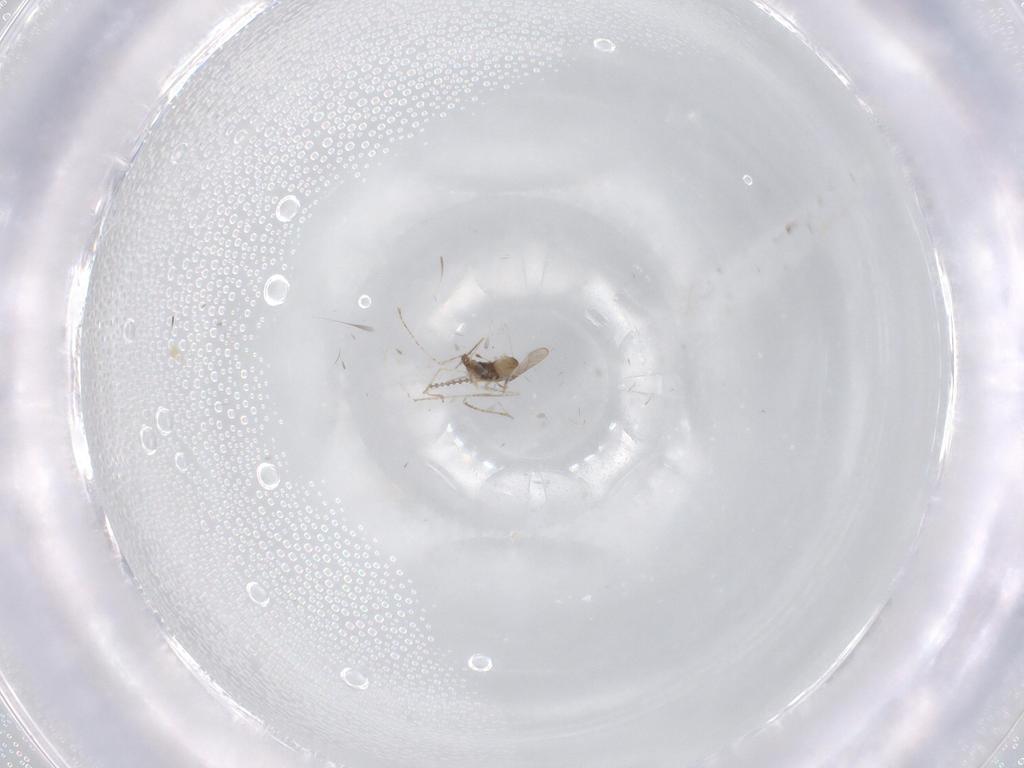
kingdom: Animalia
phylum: Arthropoda
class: Insecta
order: Diptera
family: Cecidomyiidae
